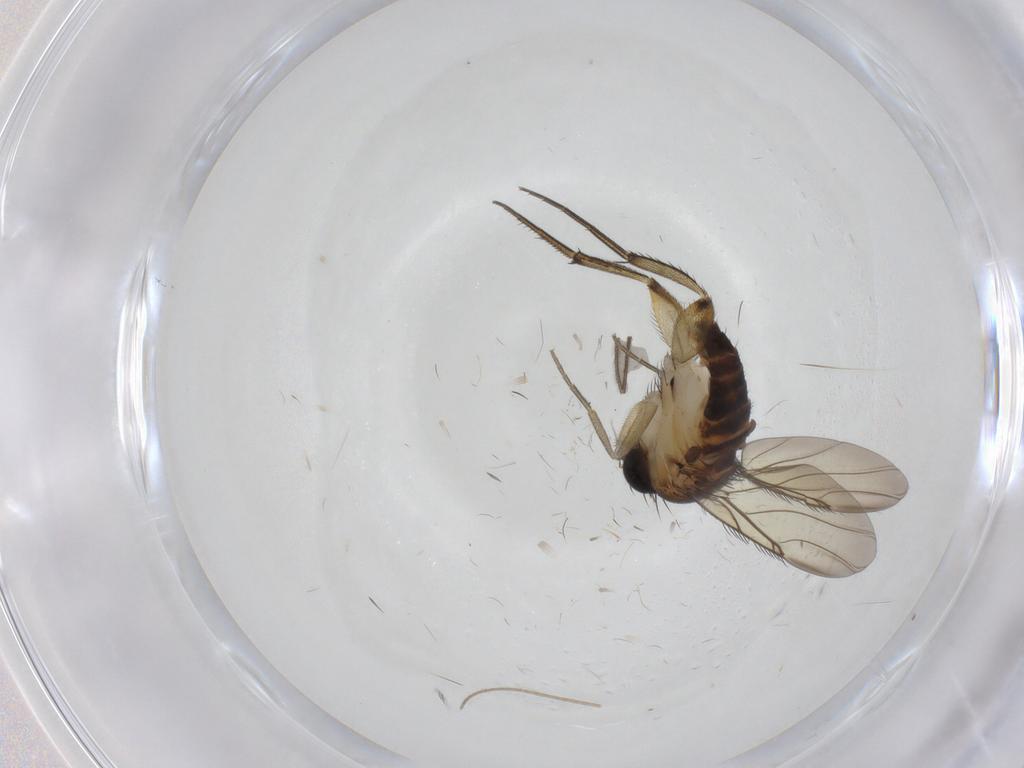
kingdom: Animalia
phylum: Arthropoda
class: Insecta
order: Diptera
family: Phoridae
